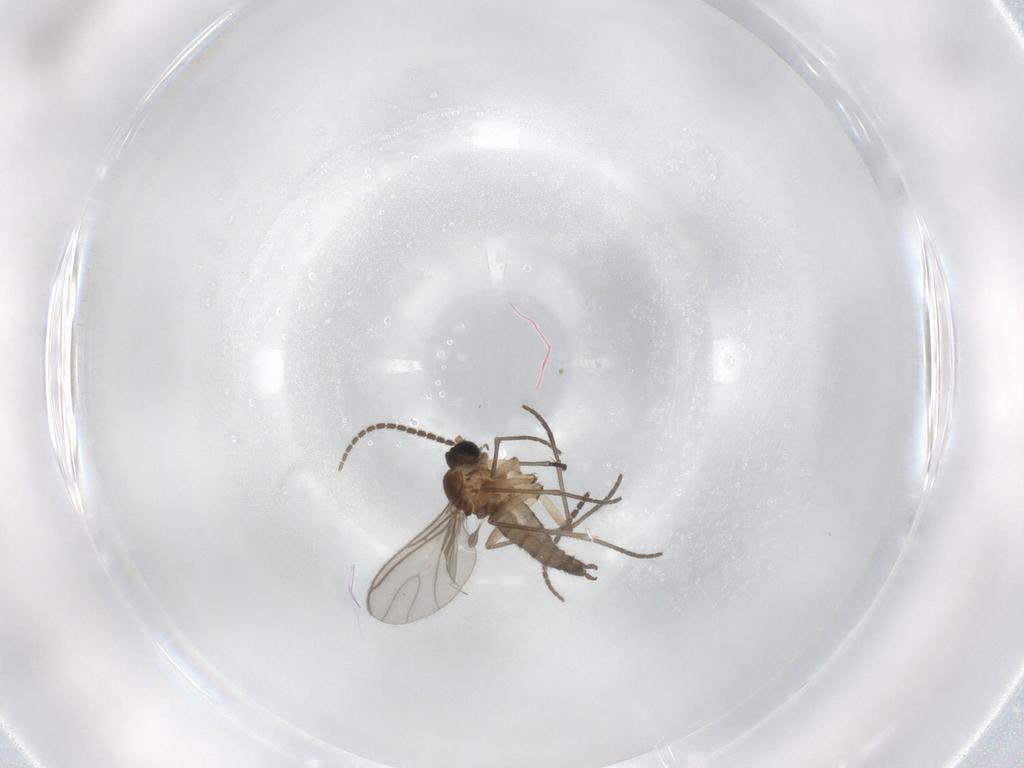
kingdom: Animalia
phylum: Arthropoda
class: Insecta
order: Diptera
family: Sciaridae
